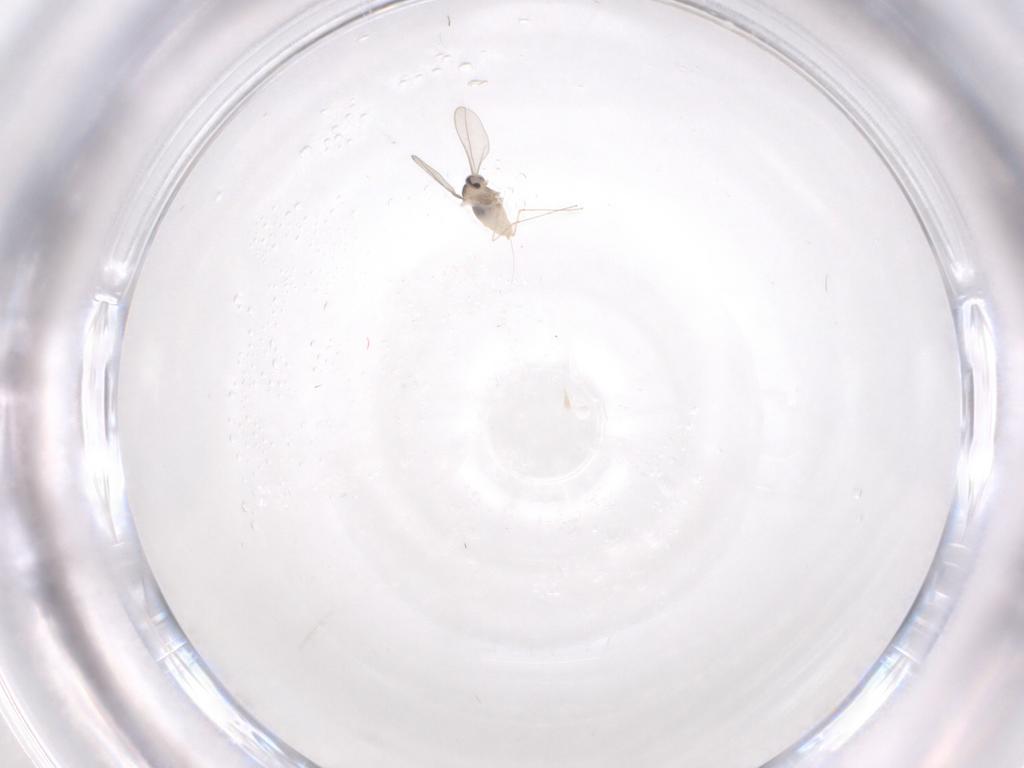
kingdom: Animalia
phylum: Arthropoda
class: Insecta
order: Diptera
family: Cecidomyiidae
